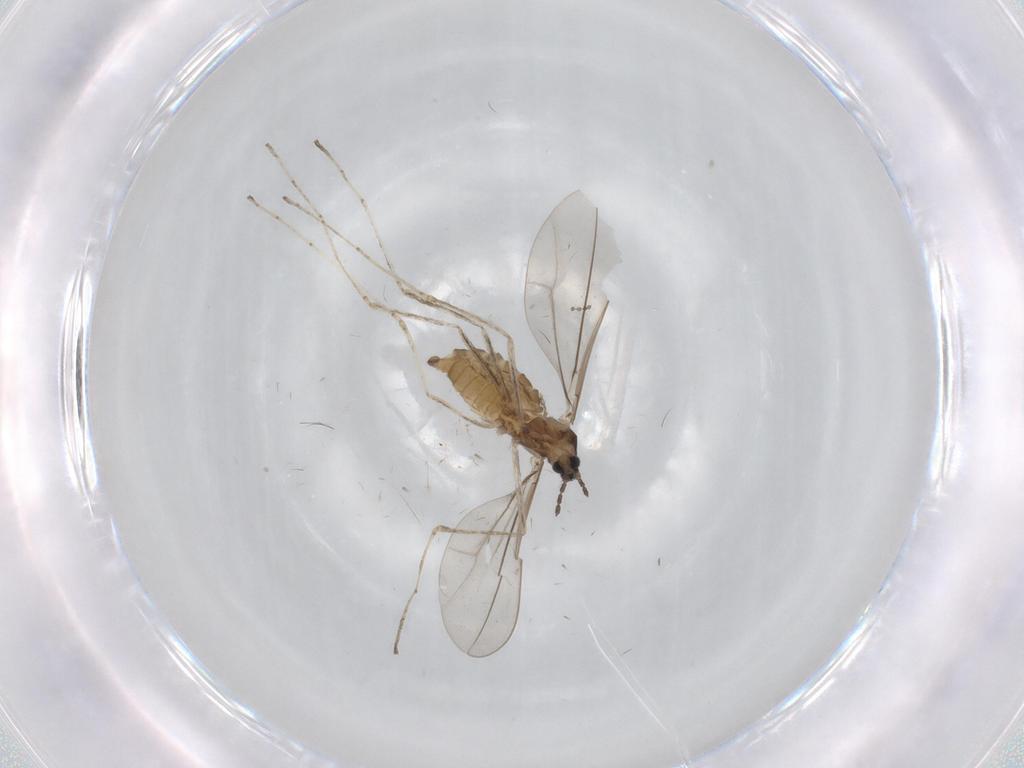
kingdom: Animalia
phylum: Arthropoda
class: Insecta
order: Diptera
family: Cecidomyiidae
